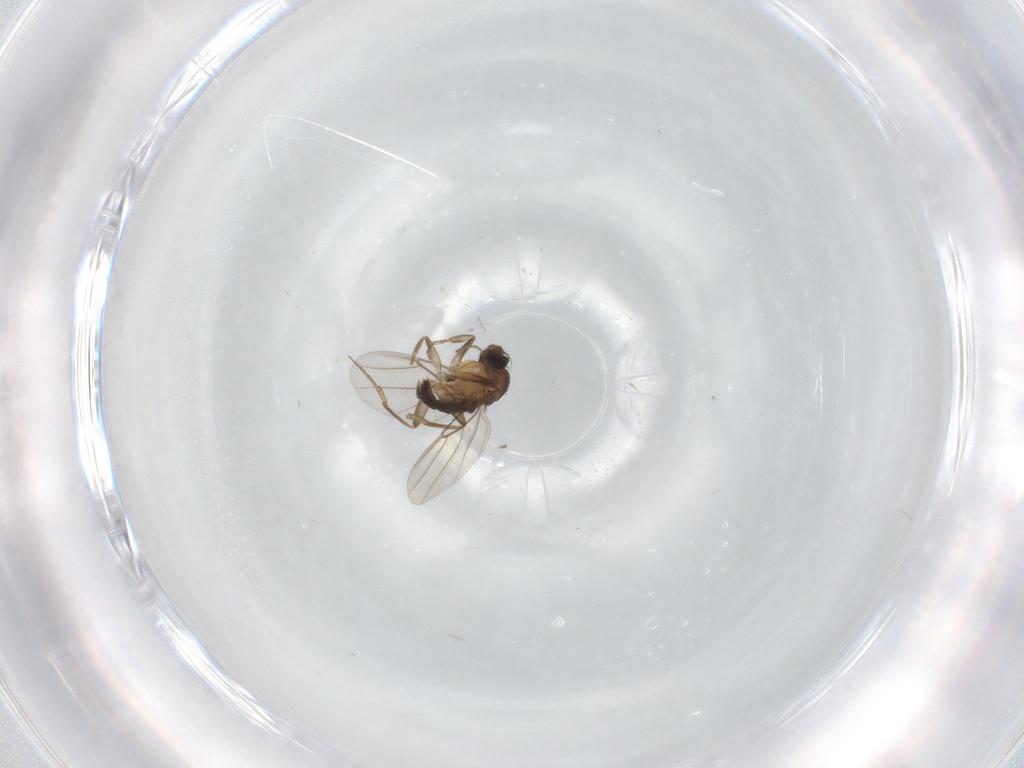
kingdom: Animalia
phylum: Arthropoda
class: Insecta
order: Diptera
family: Phoridae
